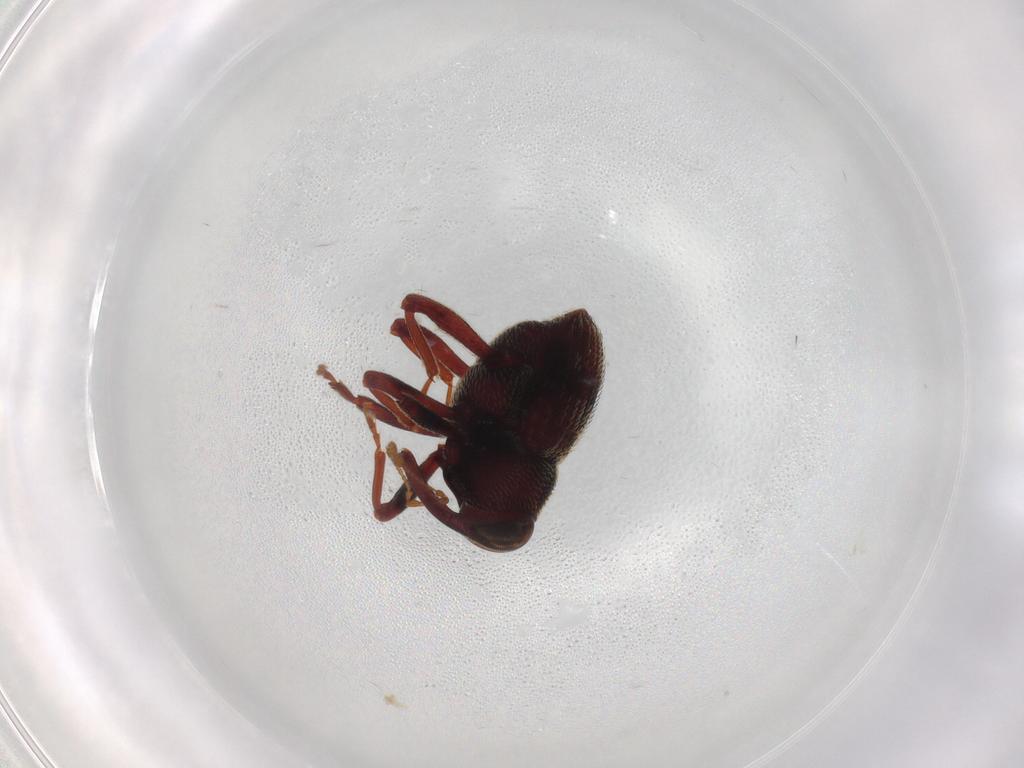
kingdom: Animalia
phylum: Arthropoda
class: Insecta
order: Coleoptera
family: Curculionidae
